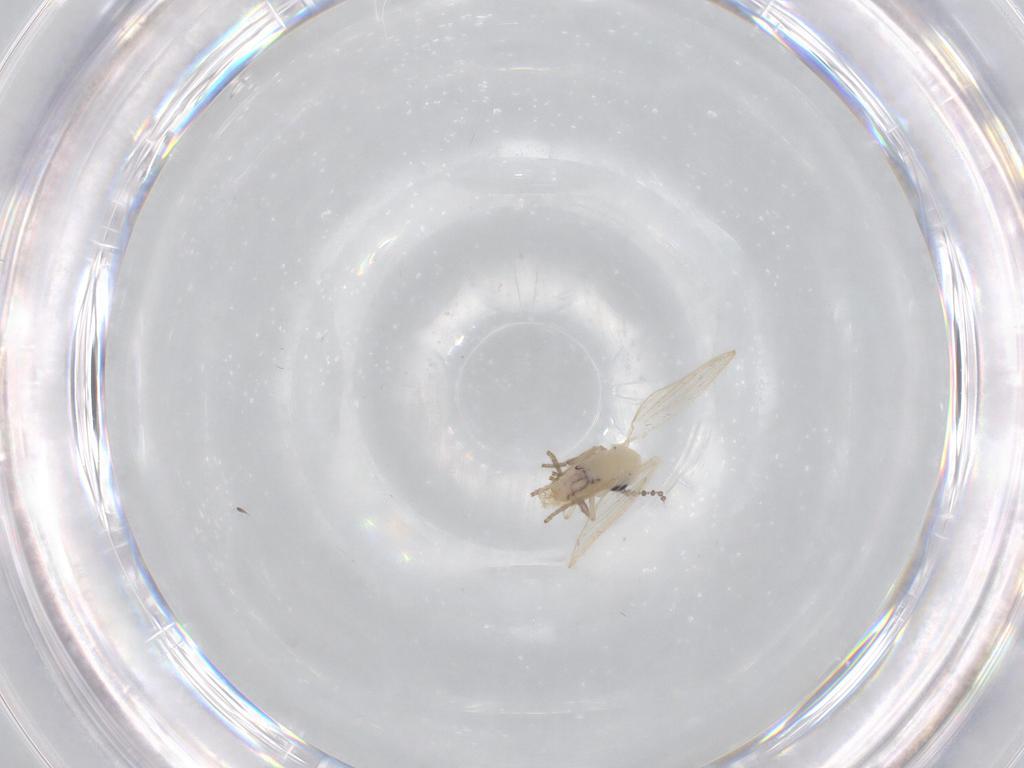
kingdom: Animalia
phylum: Arthropoda
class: Insecta
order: Diptera
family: Psychodidae
